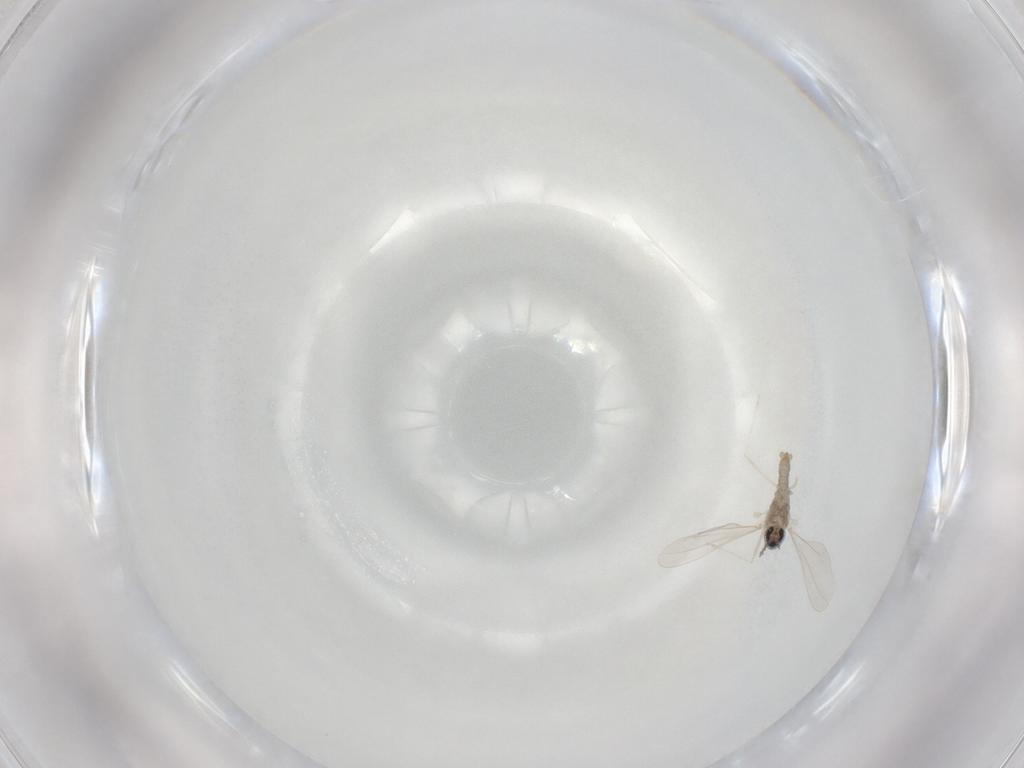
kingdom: Animalia
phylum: Arthropoda
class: Insecta
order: Diptera
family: Cecidomyiidae
